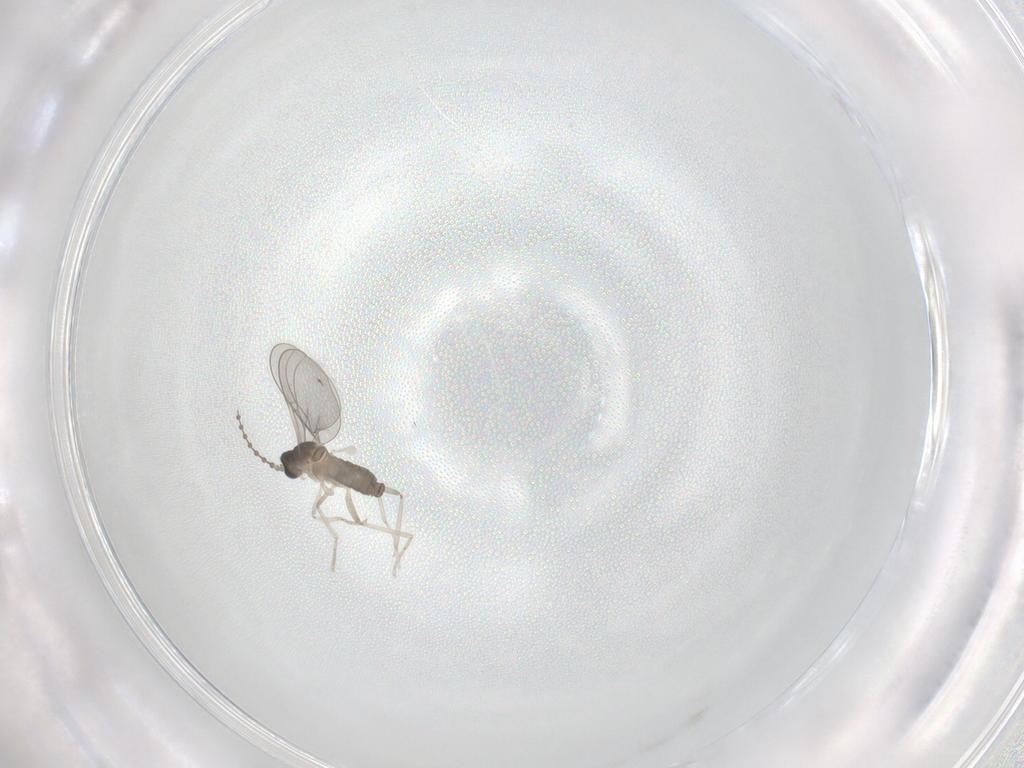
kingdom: Animalia
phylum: Arthropoda
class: Insecta
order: Diptera
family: Cecidomyiidae
